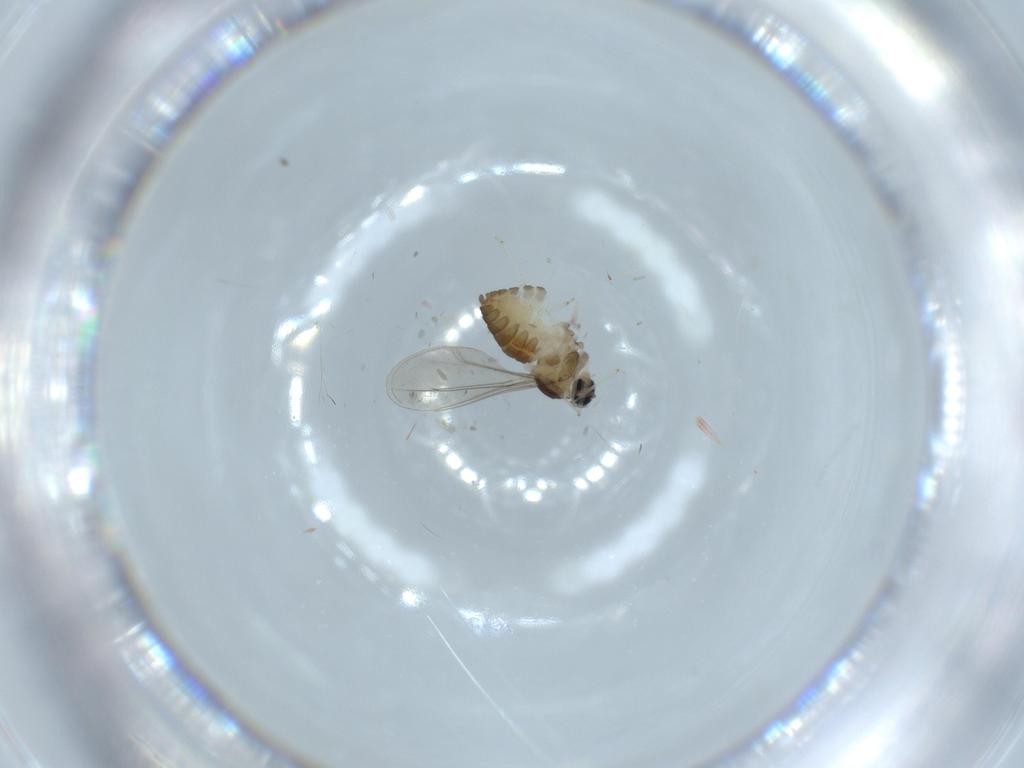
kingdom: Animalia
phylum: Arthropoda
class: Insecta
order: Diptera
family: Cecidomyiidae
